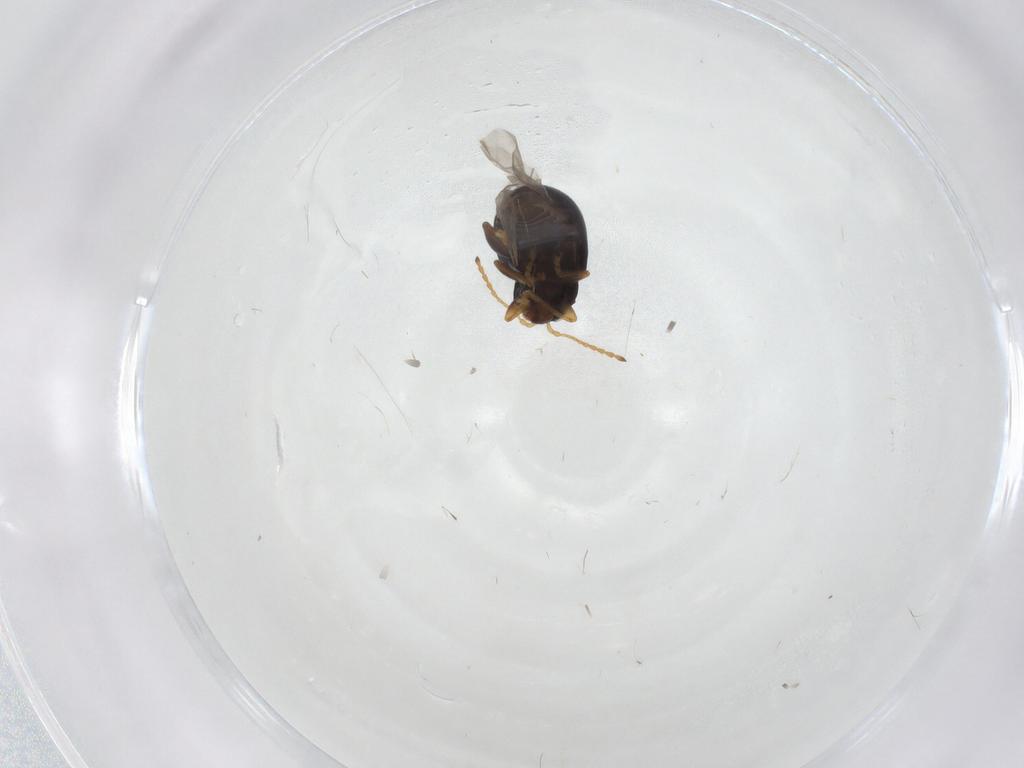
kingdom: Animalia
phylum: Arthropoda
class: Insecta
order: Coleoptera
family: Chrysomelidae
